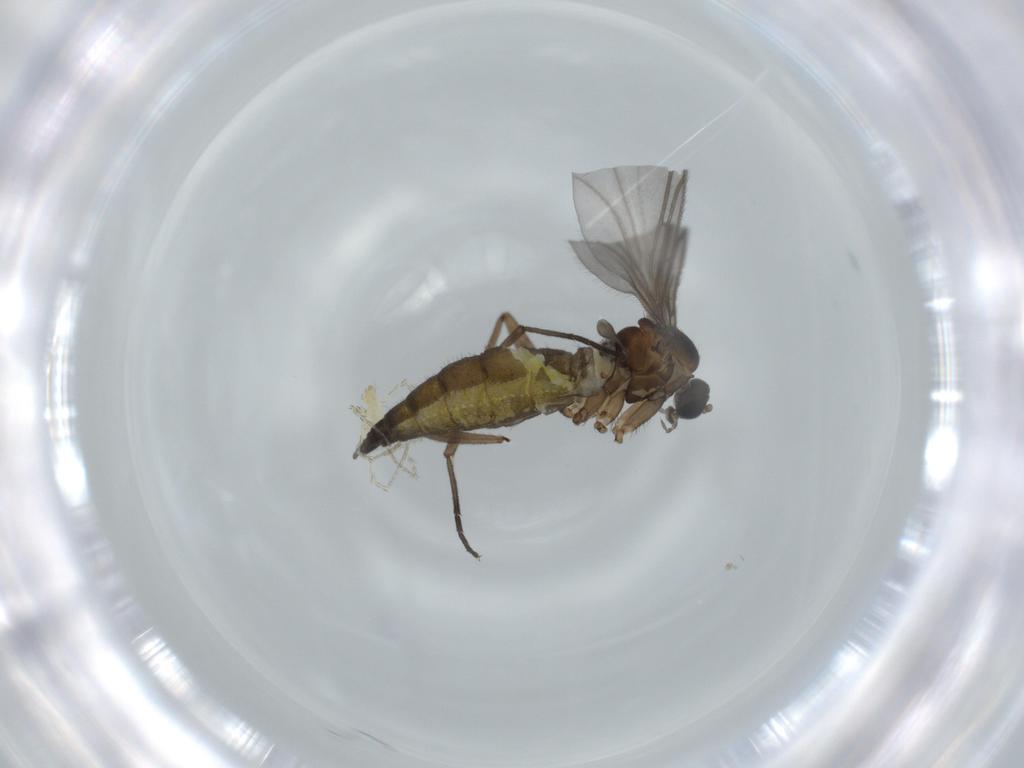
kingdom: Animalia
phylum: Arthropoda
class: Insecta
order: Diptera
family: Sciaridae
